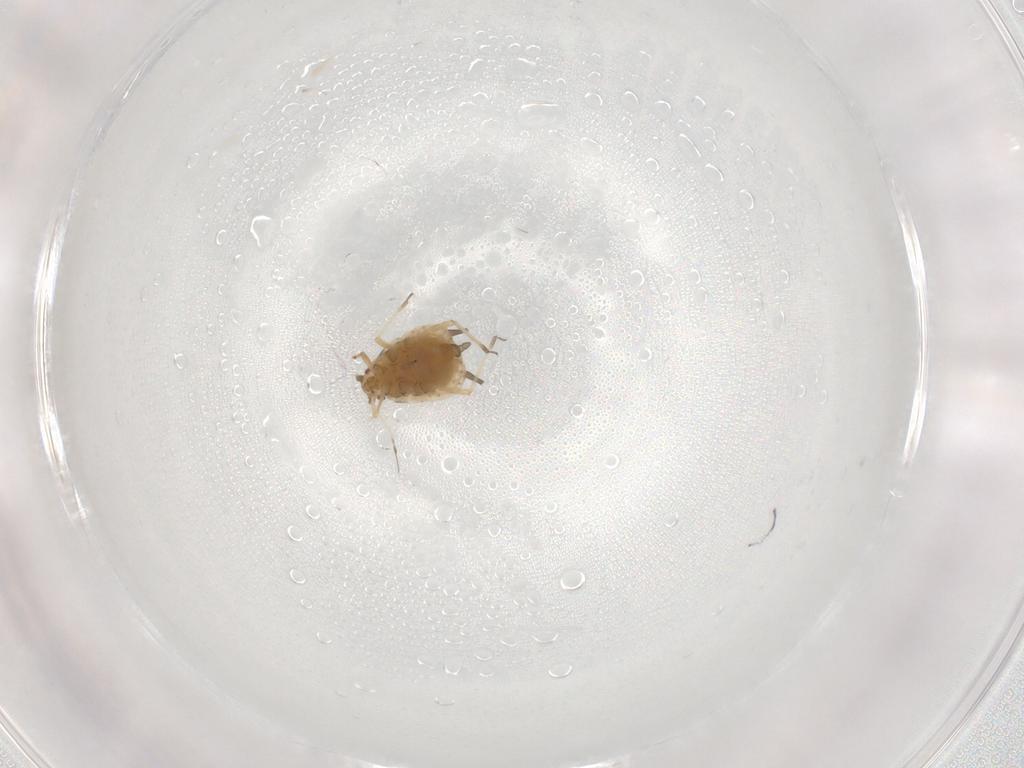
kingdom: Animalia
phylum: Arthropoda
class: Insecta
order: Hemiptera
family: Aphididae
